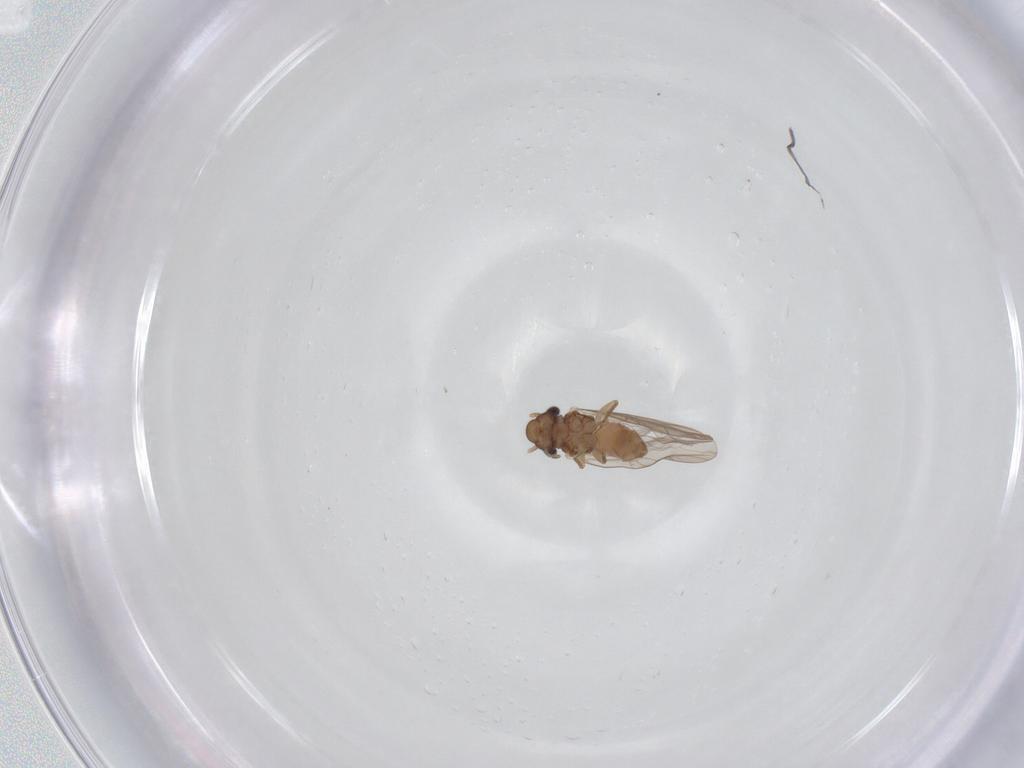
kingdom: Animalia
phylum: Arthropoda
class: Insecta
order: Psocodea
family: Lepidopsocidae
